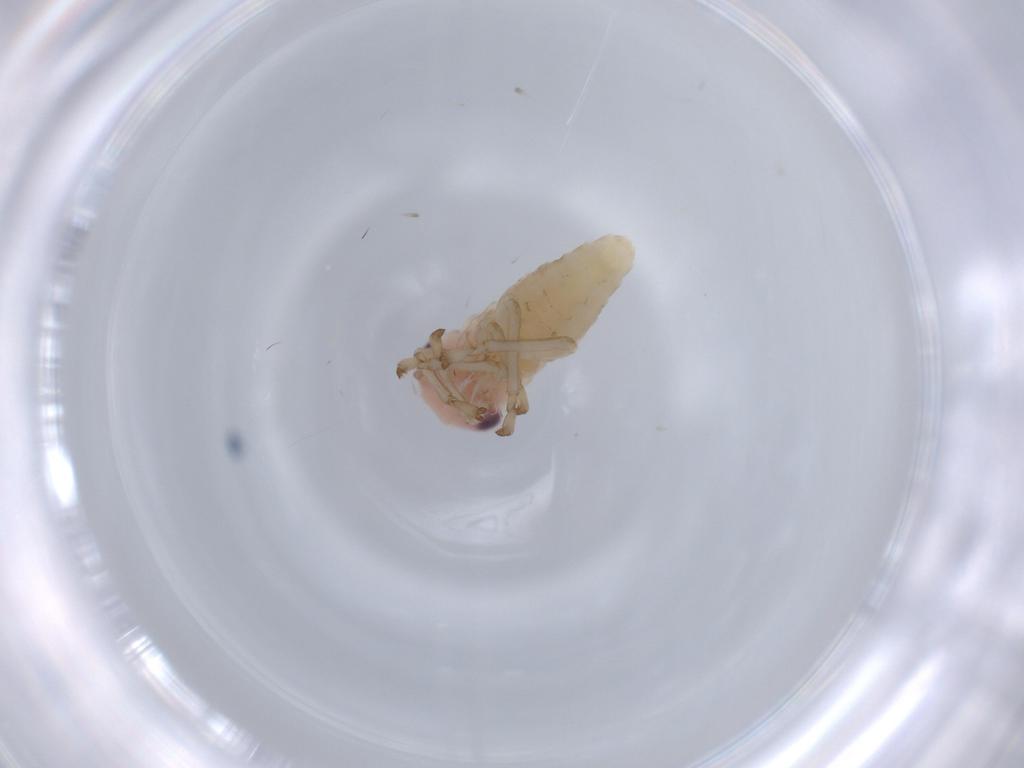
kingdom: Animalia
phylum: Arthropoda
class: Insecta
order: Hemiptera
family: Cicadellidae
